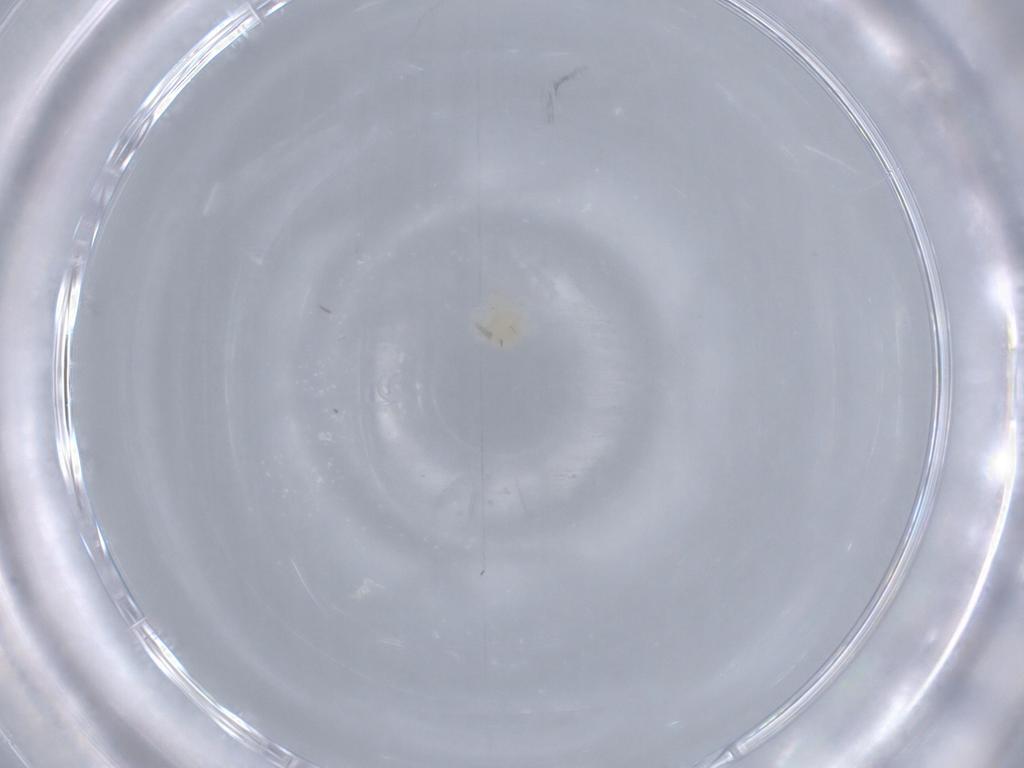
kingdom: Animalia
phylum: Arthropoda
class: Arachnida
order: Trombidiformes
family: Anystidae
